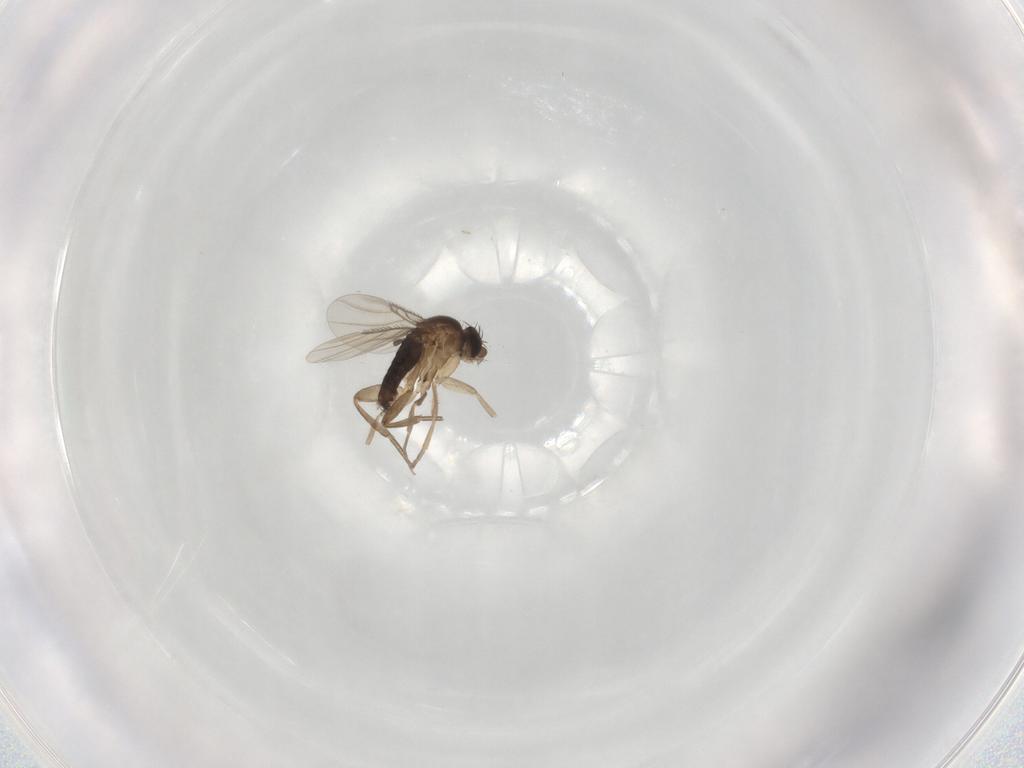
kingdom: Animalia
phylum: Arthropoda
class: Insecta
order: Diptera
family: Phoridae
